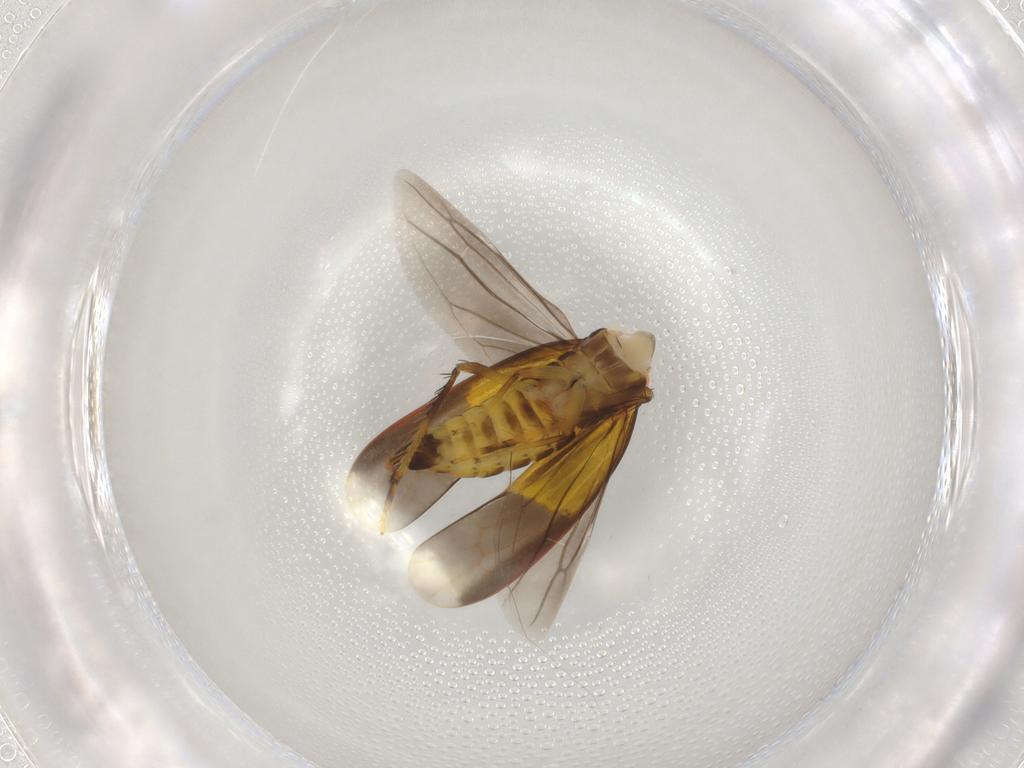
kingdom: Animalia
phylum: Arthropoda
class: Insecta
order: Hemiptera
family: Cicadellidae
